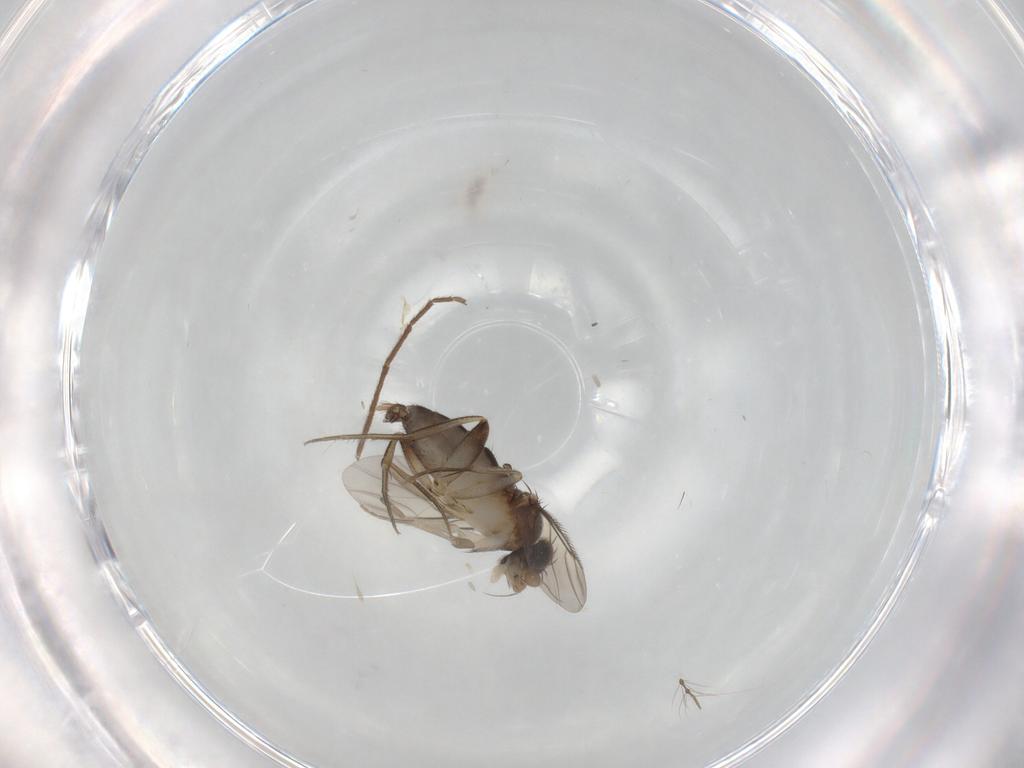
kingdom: Animalia
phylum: Arthropoda
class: Insecta
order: Diptera
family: Phoridae
